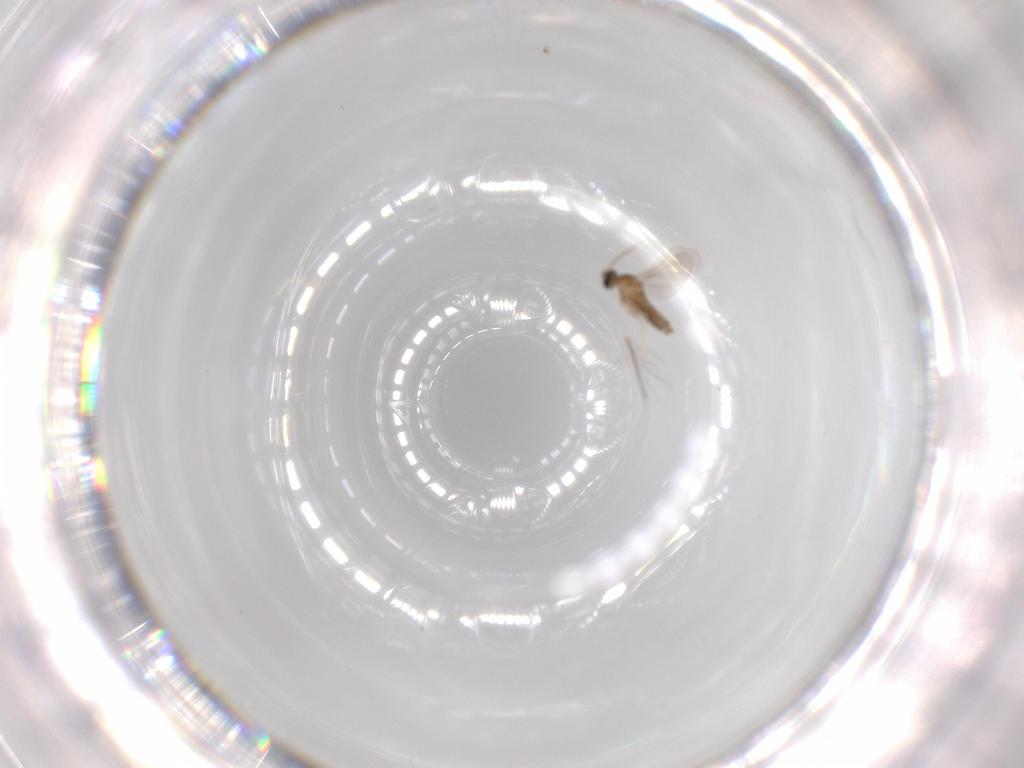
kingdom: Animalia
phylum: Arthropoda
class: Insecta
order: Diptera
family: Cecidomyiidae
